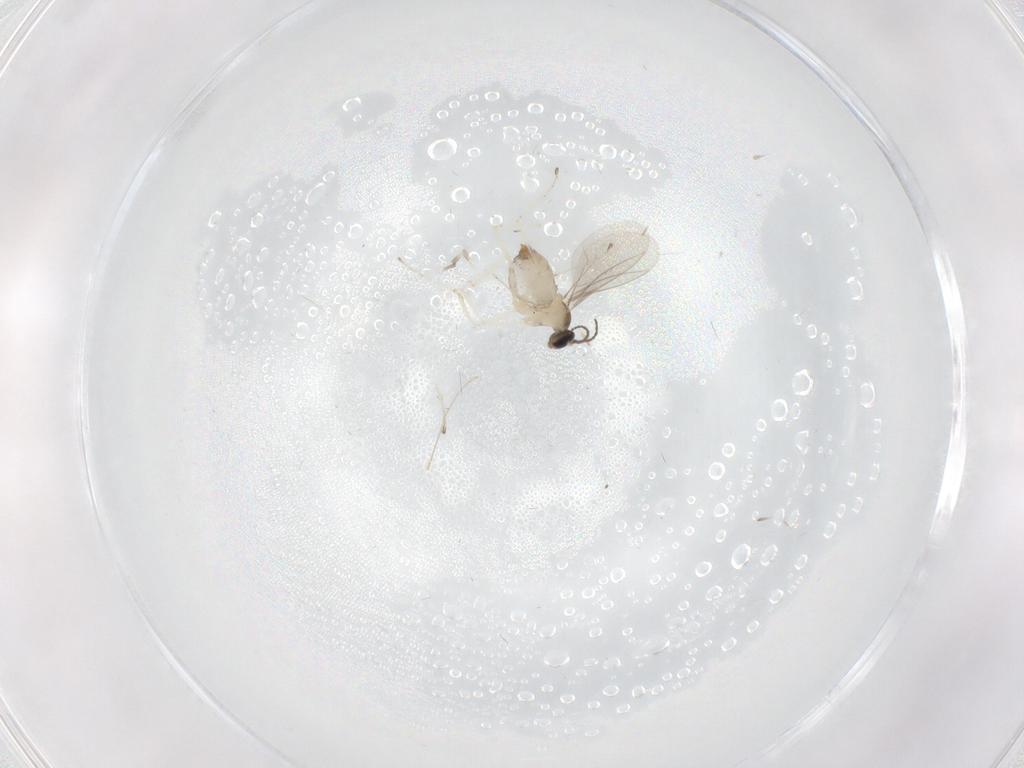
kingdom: Animalia
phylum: Arthropoda
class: Insecta
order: Diptera
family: Cecidomyiidae
